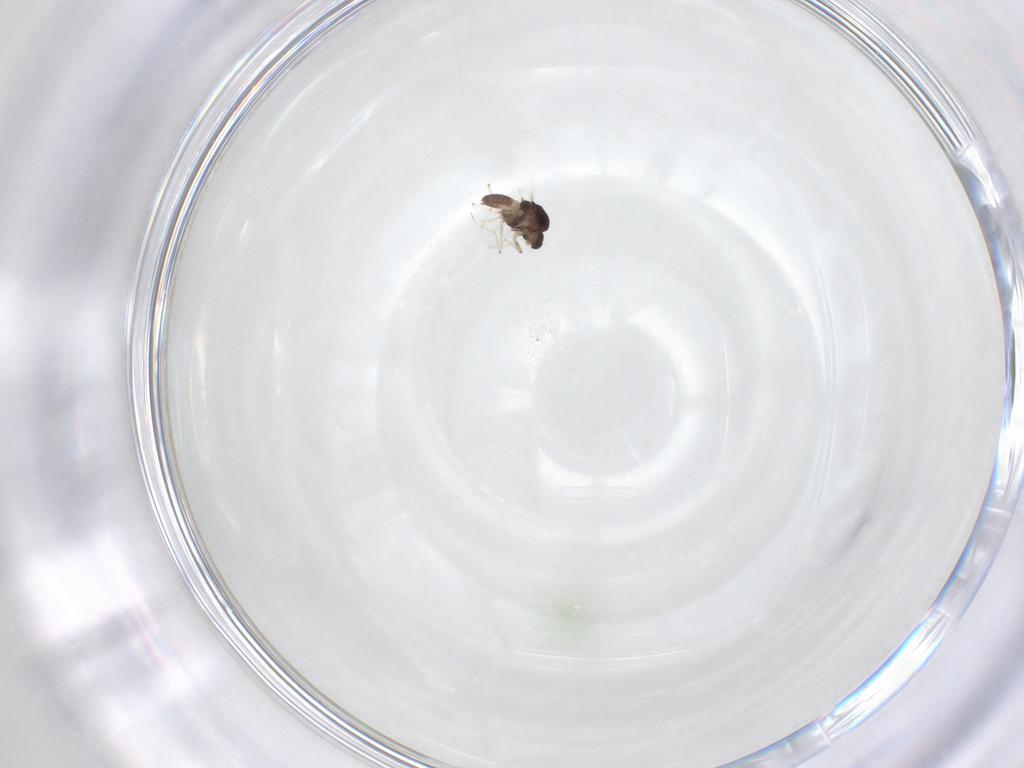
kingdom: Animalia
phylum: Arthropoda
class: Insecta
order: Diptera
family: Chironomidae
